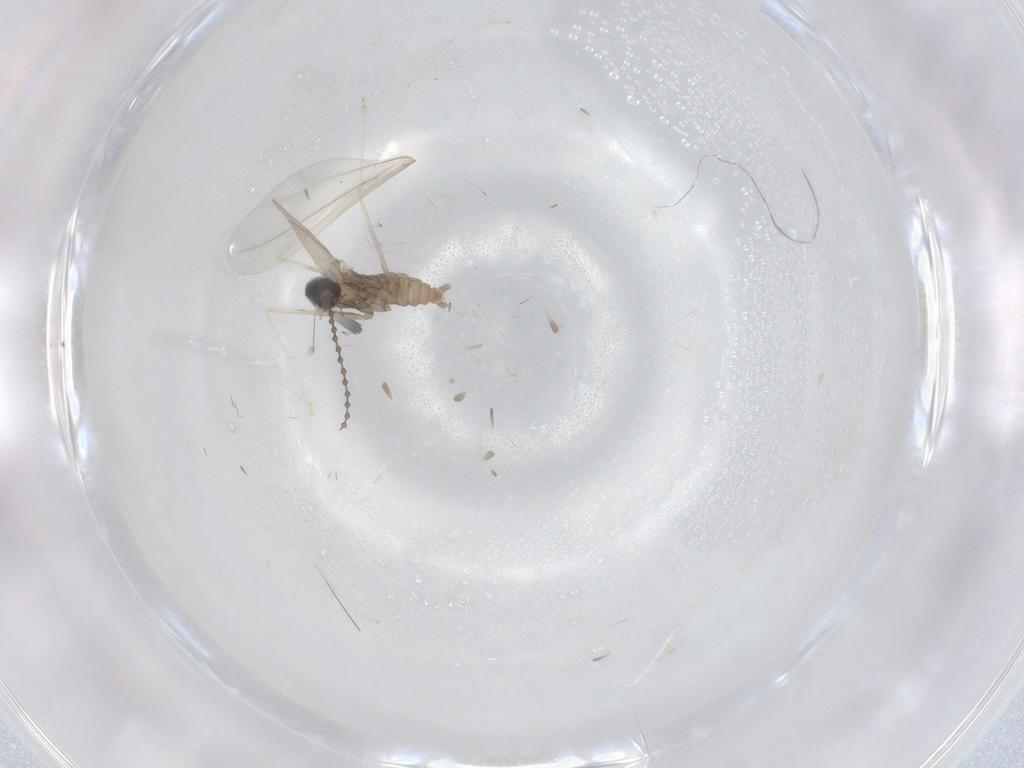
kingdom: Animalia
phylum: Arthropoda
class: Insecta
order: Diptera
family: Cecidomyiidae
